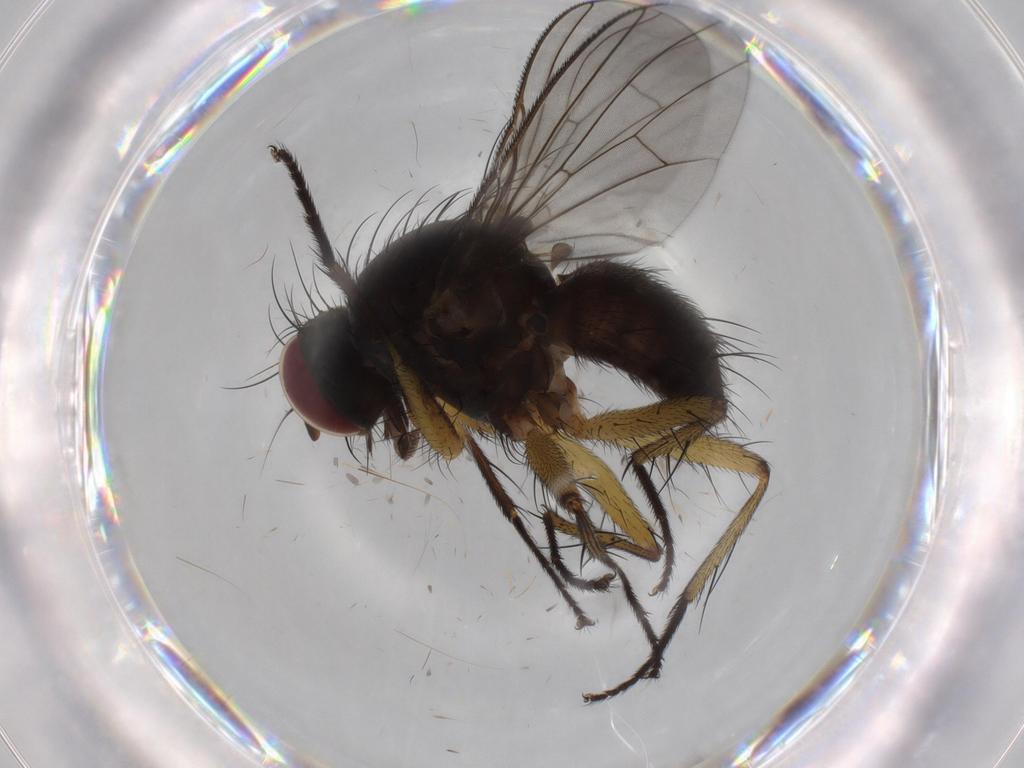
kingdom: Animalia
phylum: Arthropoda
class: Insecta
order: Diptera
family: Muscidae
